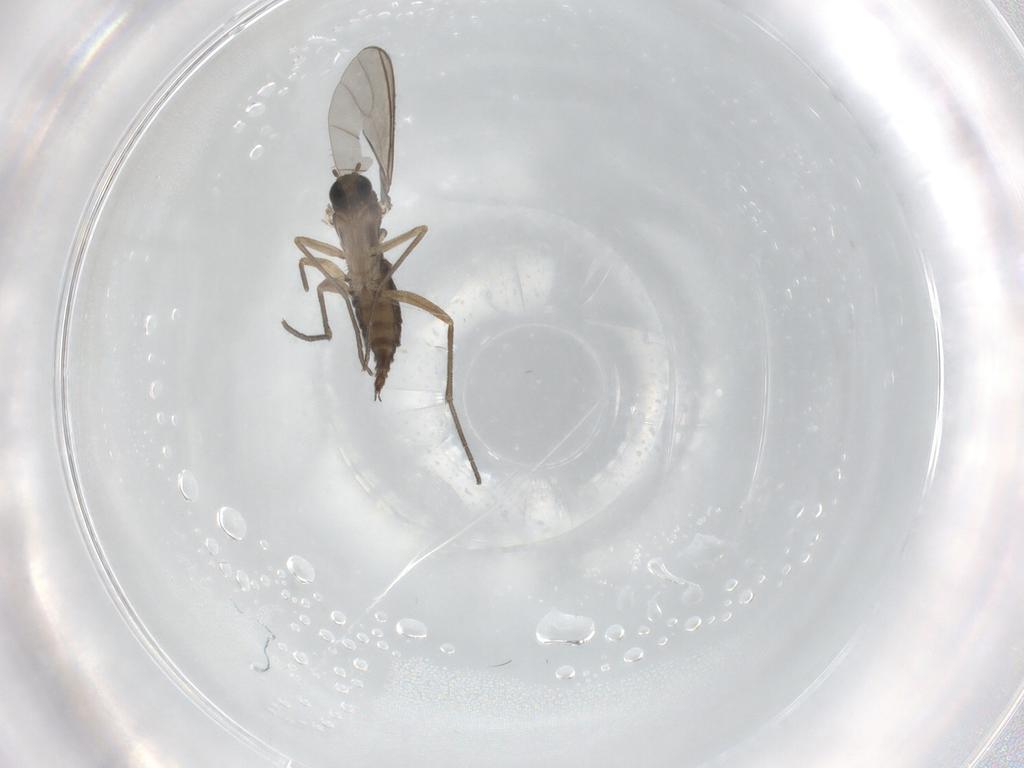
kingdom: Animalia
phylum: Arthropoda
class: Insecta
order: Diptera
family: Sciaridae
